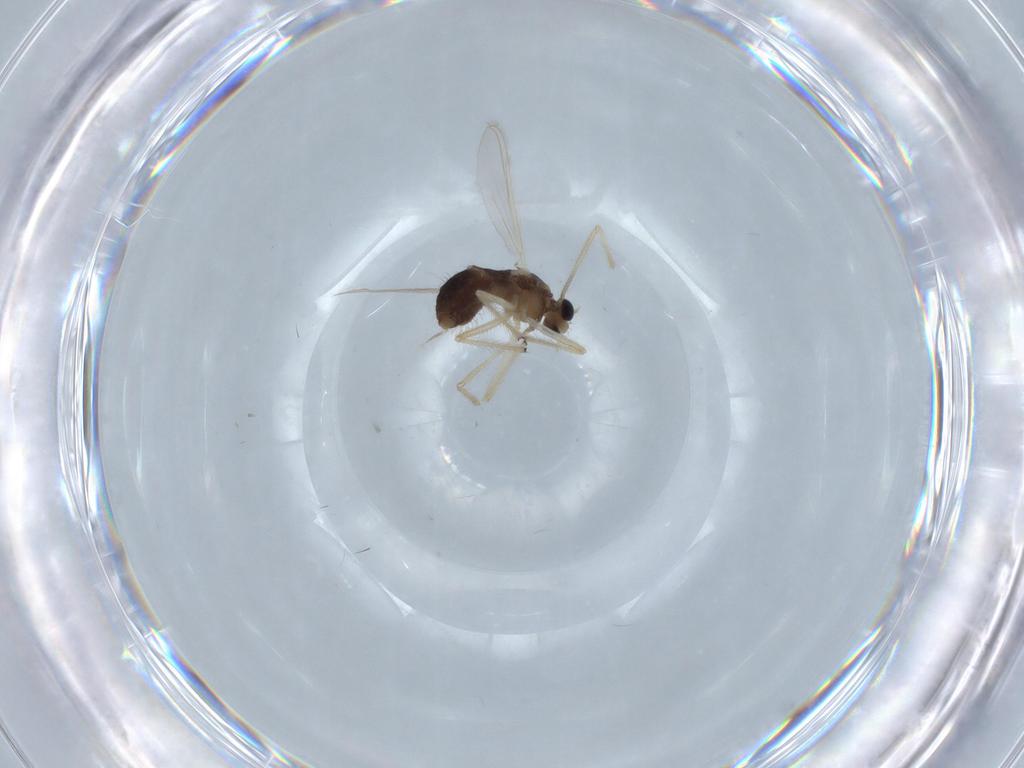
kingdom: Animalia
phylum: Arthropoda
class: Insecta
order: Diptera
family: Chironomidae
